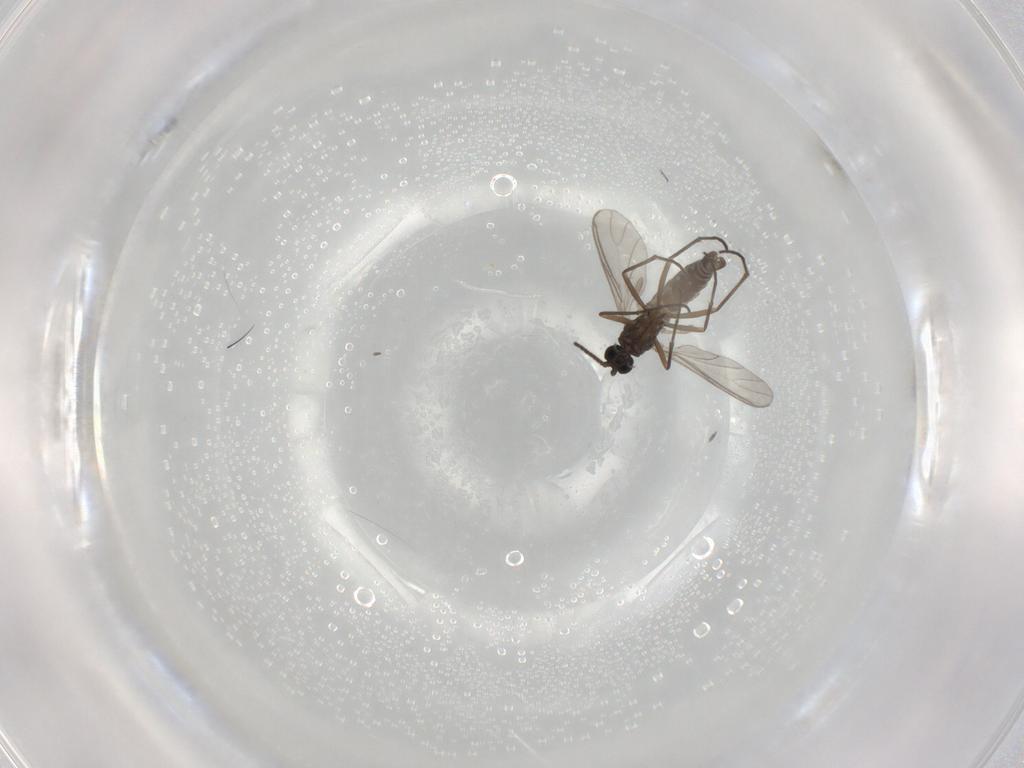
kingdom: Animalia
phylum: Arthropoda
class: Insecta
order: Diptera
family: Sciaridae
